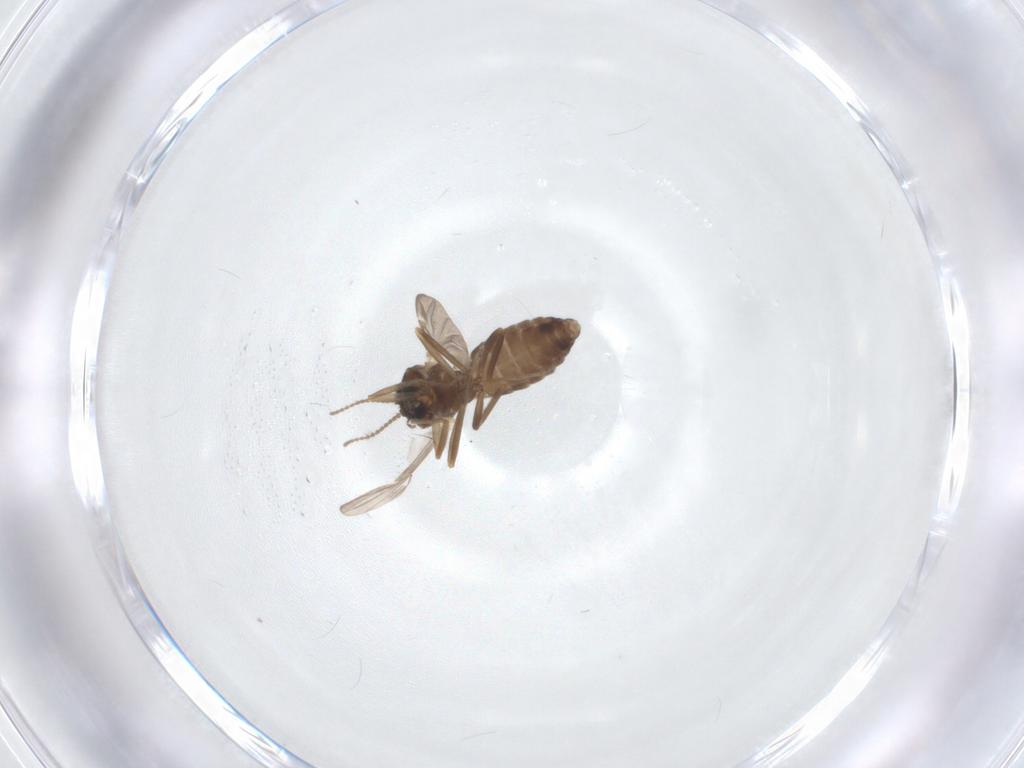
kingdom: Animalia
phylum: Arthropoda
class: Insecta
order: Diptera
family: Ceratopogonidae
